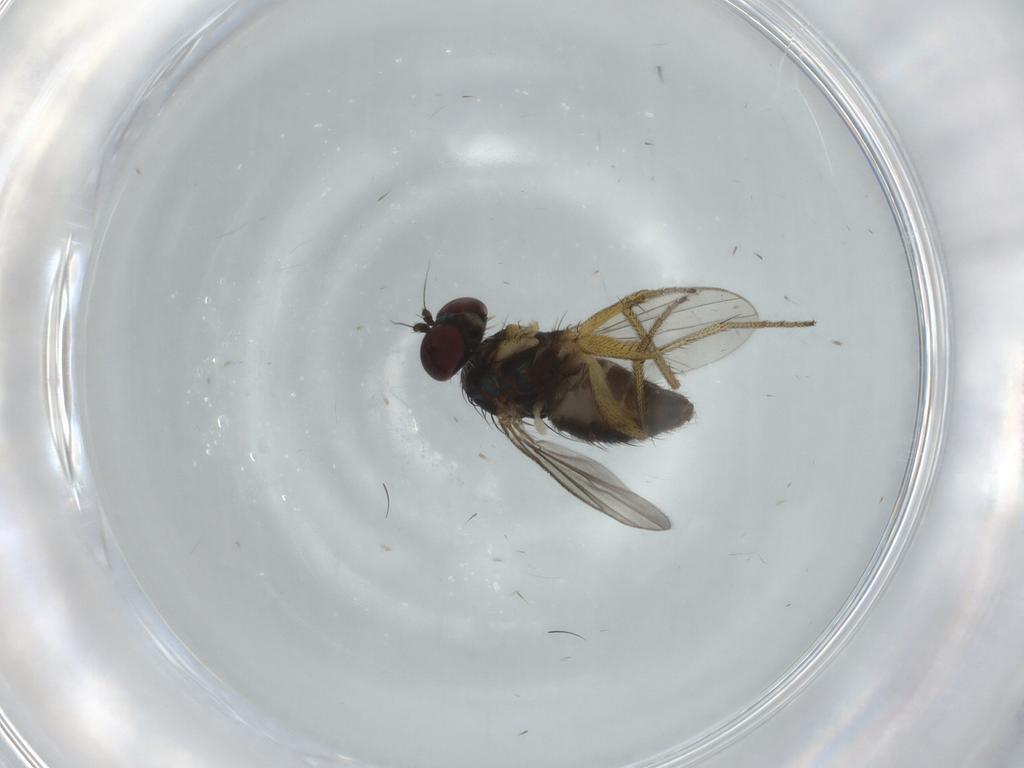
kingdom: Animalia
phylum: Arthropoda
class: Insecta
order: Diptera
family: Dolichopodidae
